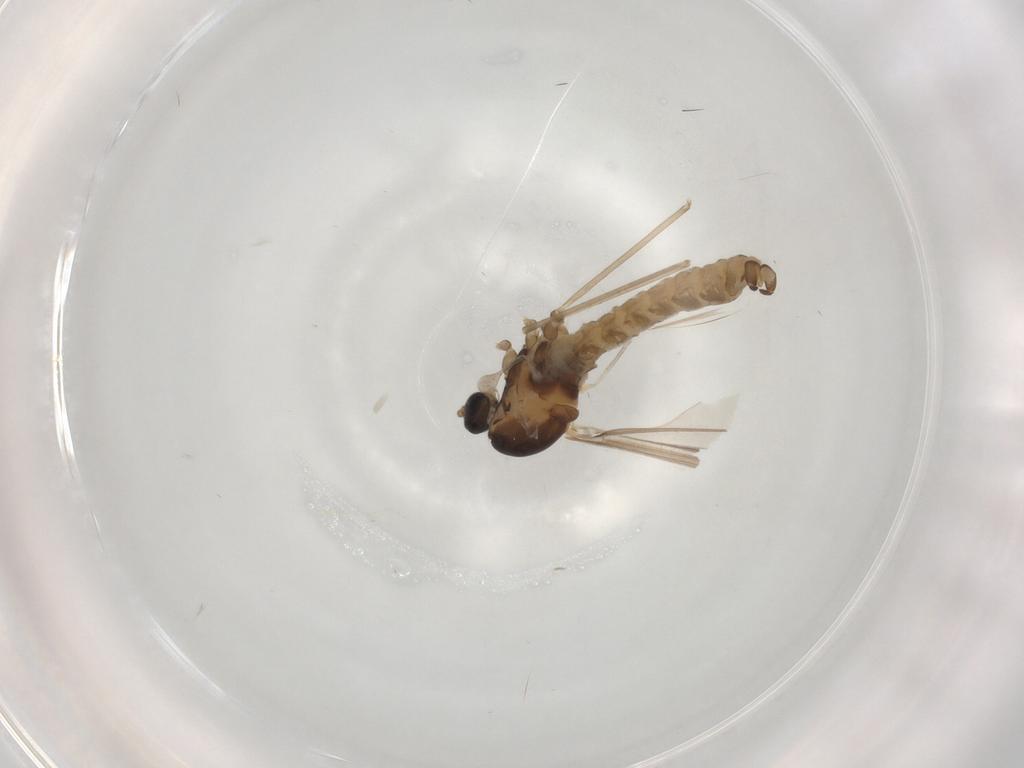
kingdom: Animalia
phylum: Arthropoda
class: Insecta
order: Diptera
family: Cecidomyiidae
